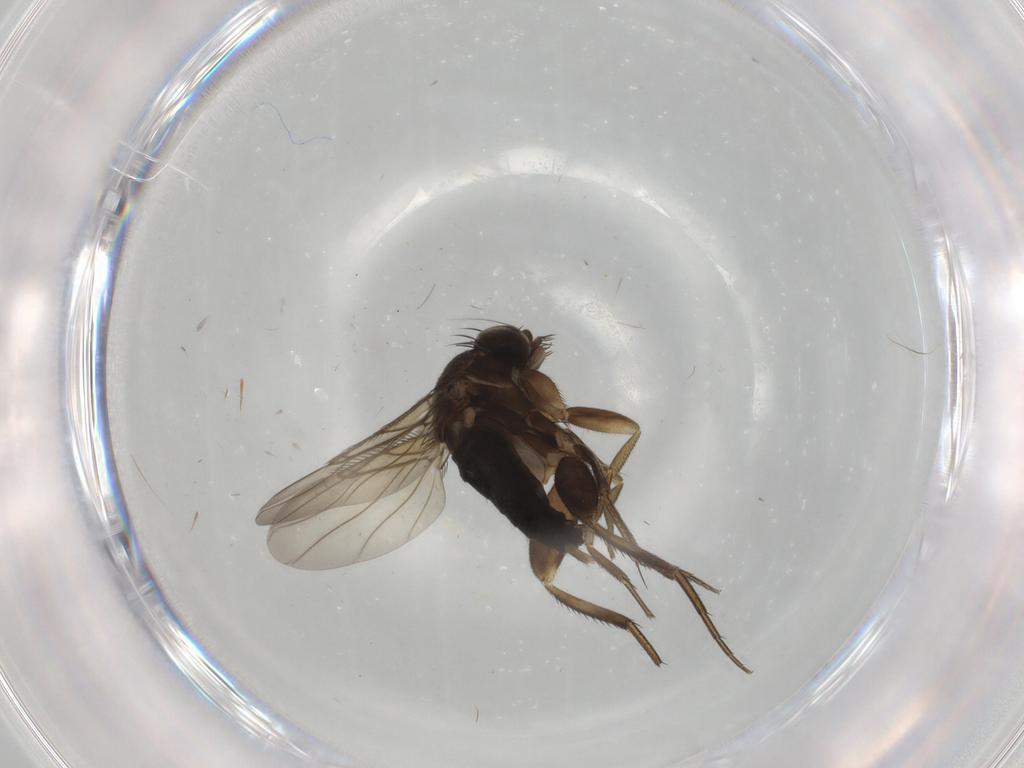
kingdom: Animalia
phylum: Arthropoda
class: Insecta
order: Diptera
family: Phoridae
